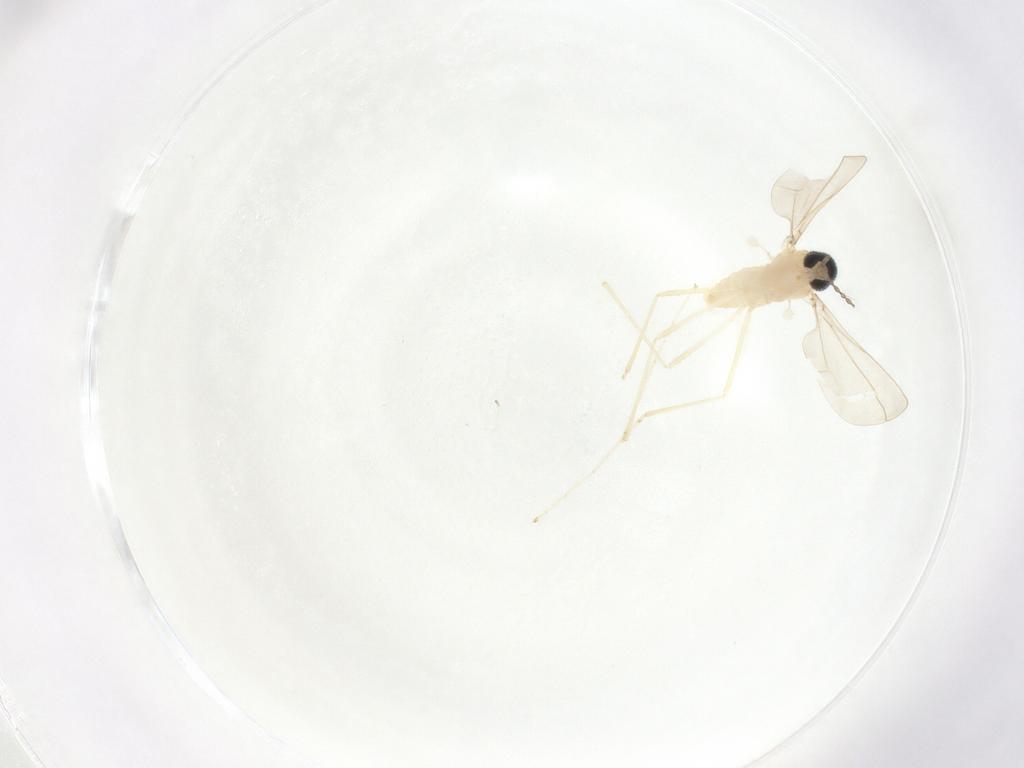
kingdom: Animalia
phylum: Arthropoda
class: Insecta
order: Diptera
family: Cecidomyiidae
